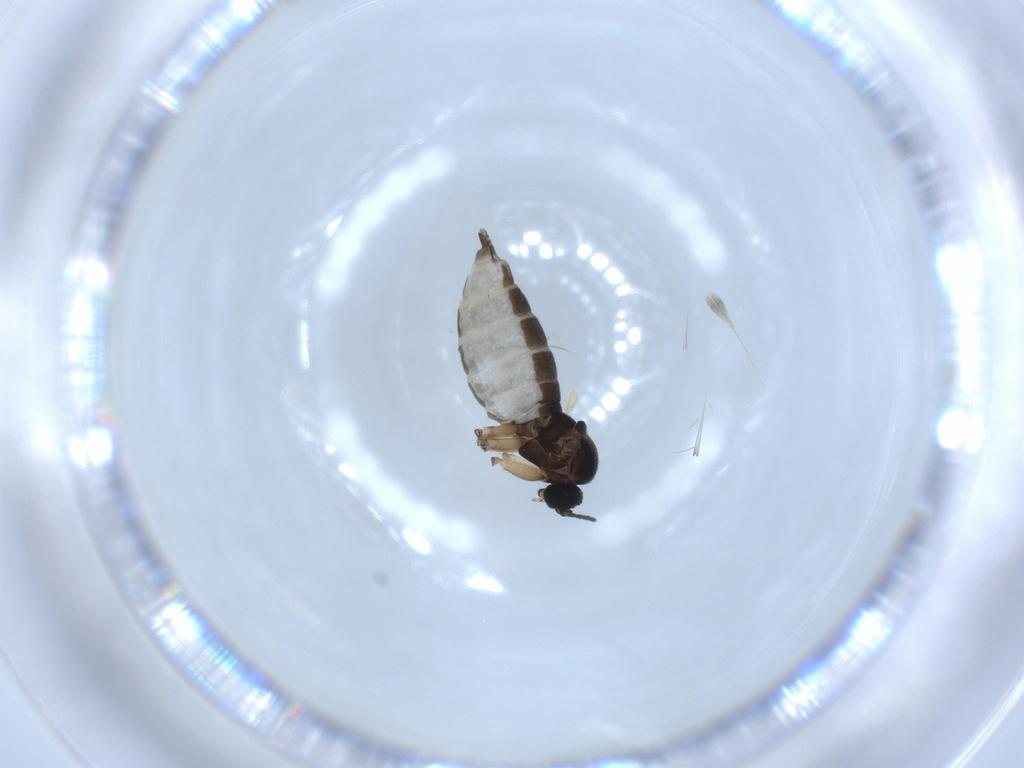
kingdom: Animalia
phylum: Arthropoda
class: Insecta
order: Diptera
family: Sciaridae
